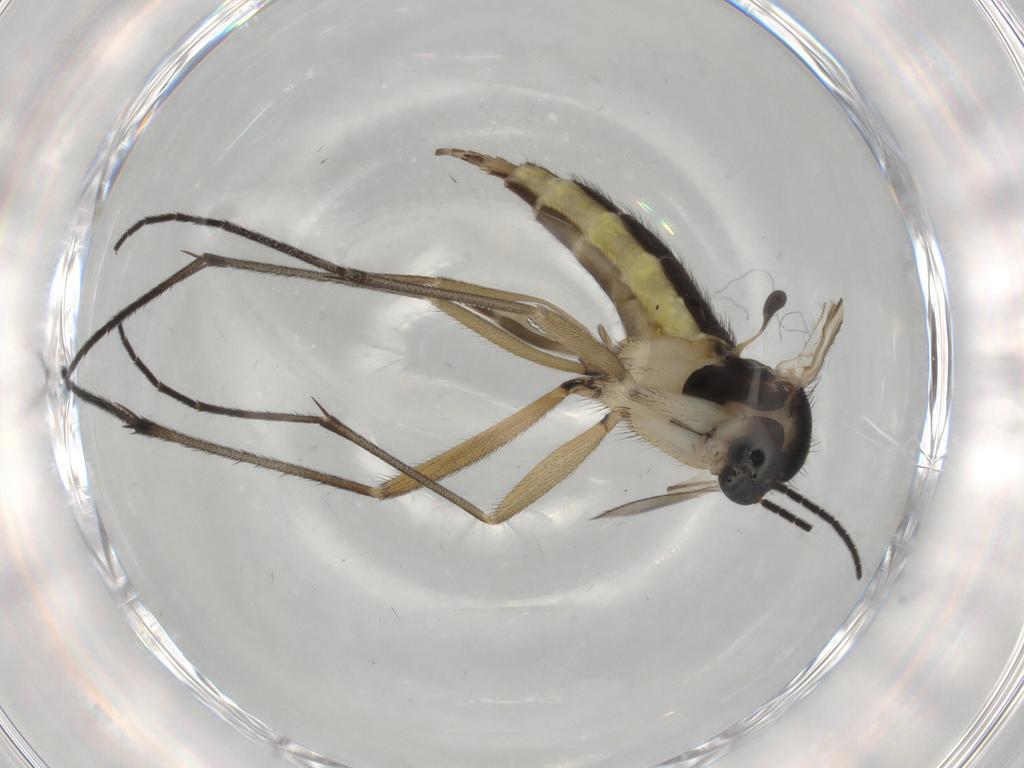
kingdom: Animalia
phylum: Arthropoda
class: Insecta
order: Diptera
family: Sciaridae
